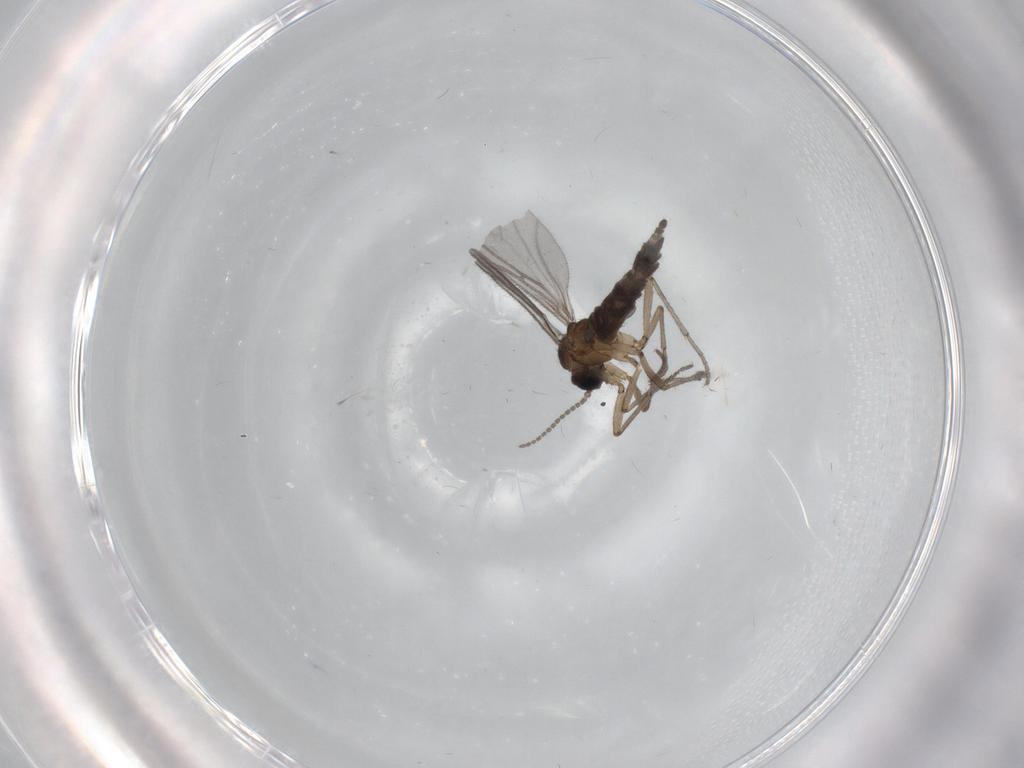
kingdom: Animalia
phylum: Arthropoda
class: Insecta
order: Diptera
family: Sciaridae
